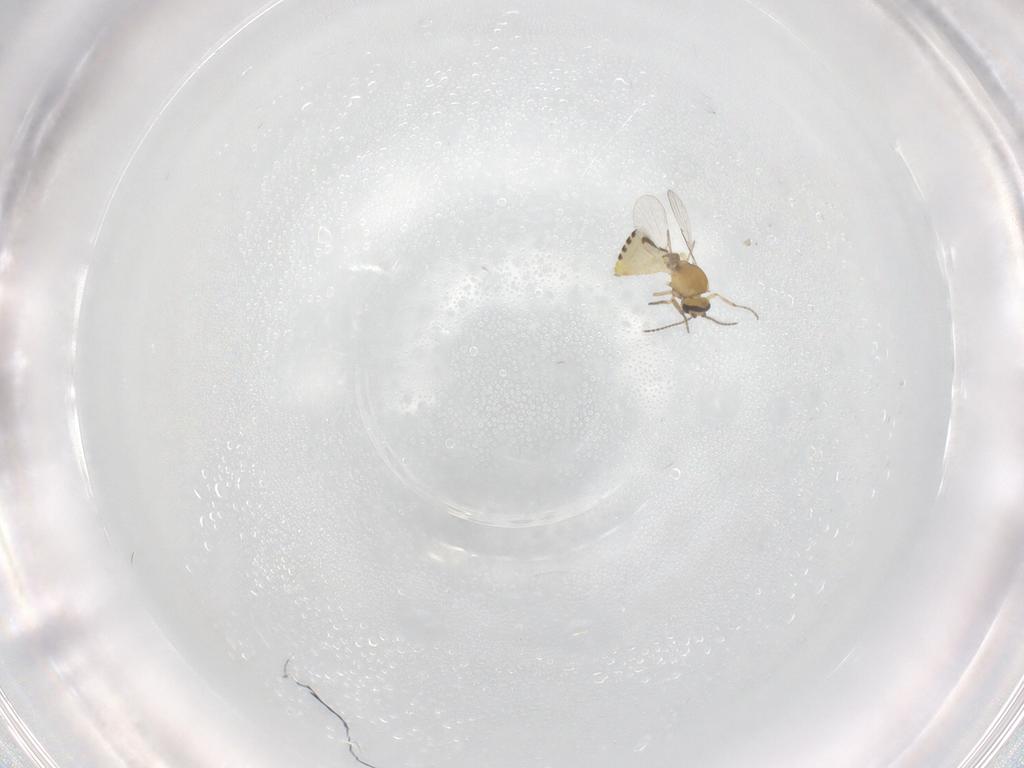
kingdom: Animalia
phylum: Arthropoda
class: Insecta
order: Diptera
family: Ceratopogonidae
